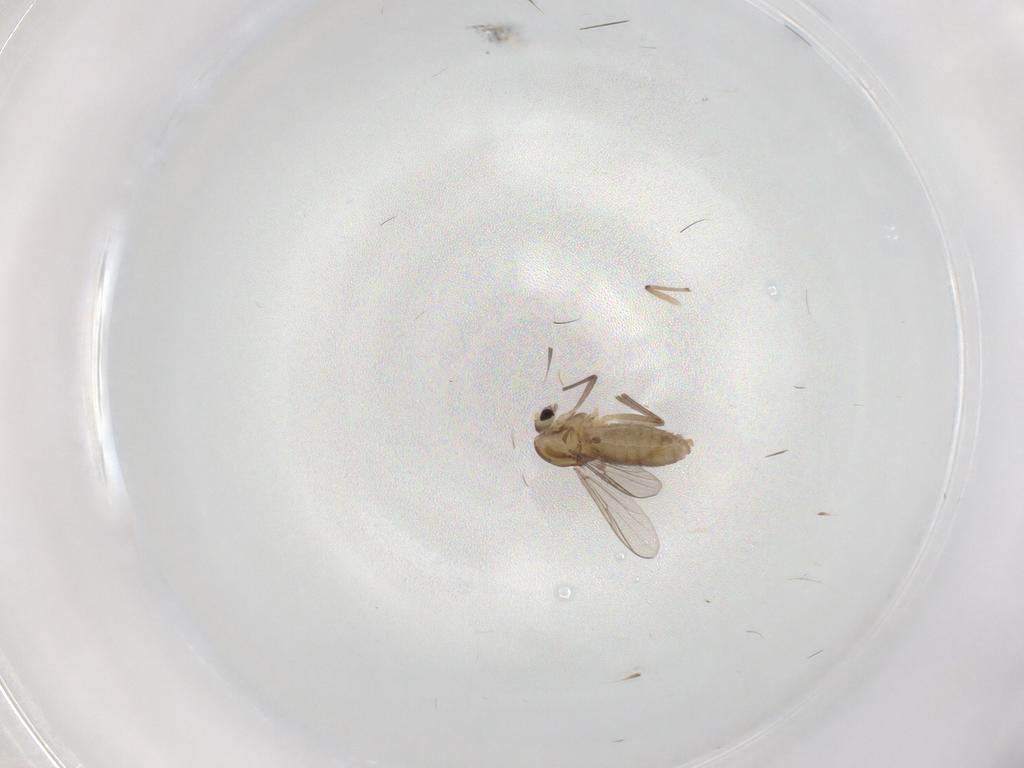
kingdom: Animalia
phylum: Arthropoda
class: Insecta
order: Diptera
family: Chironomidae
